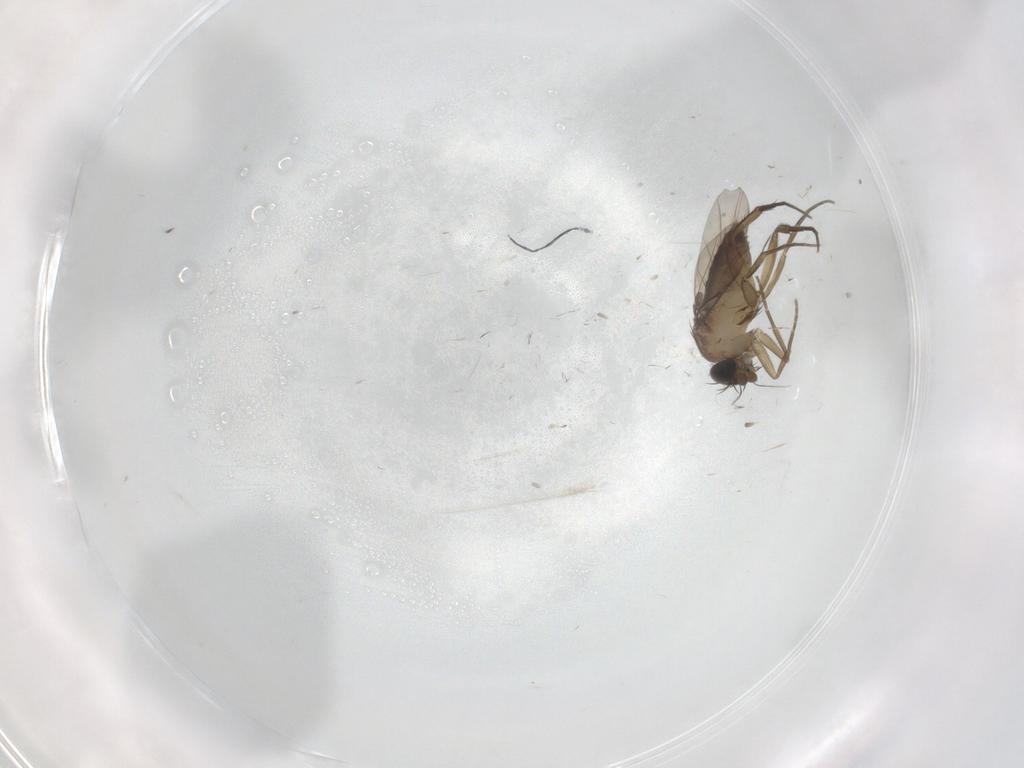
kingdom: Animalia
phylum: Arthropoda
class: Insecta
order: Diptera
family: Phoridae
